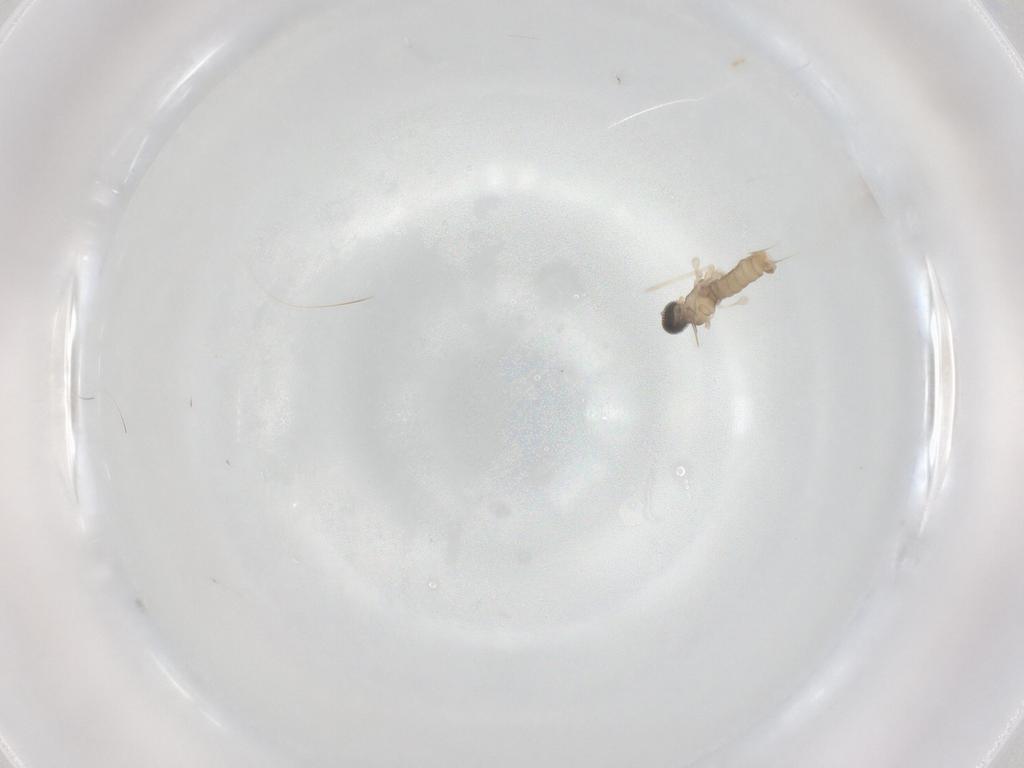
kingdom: Animalia
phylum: Arthropoda
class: Insecta
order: Diptera
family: Cecidomyiidae
